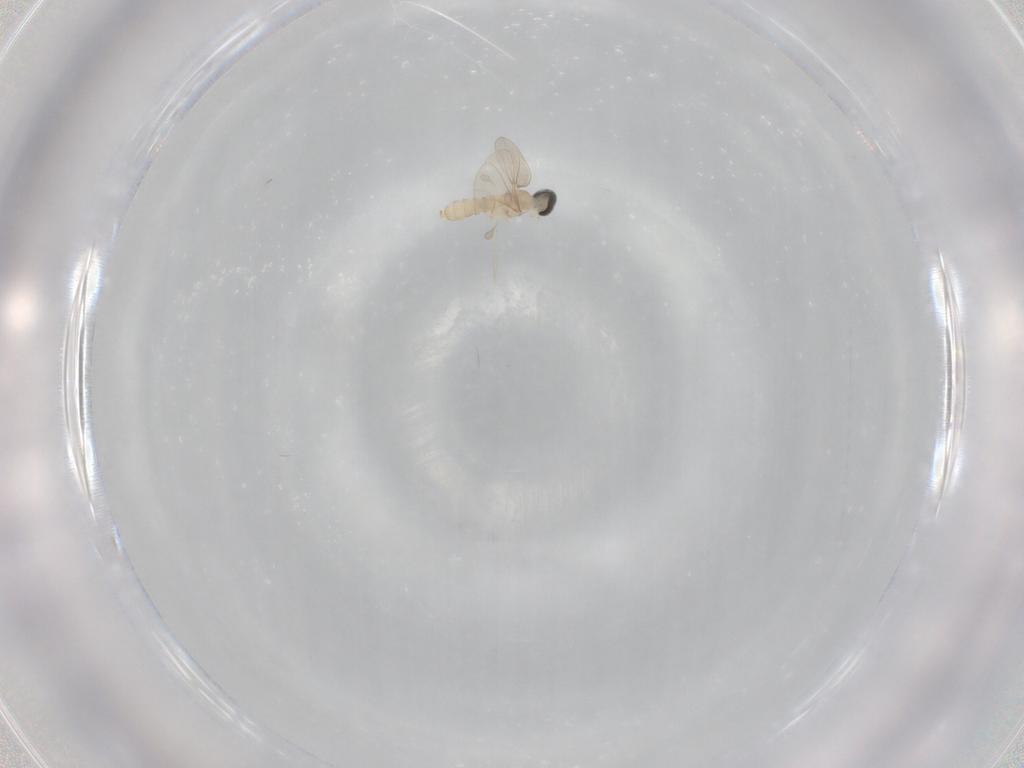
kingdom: Animalia
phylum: Arthropoda
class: Insecta
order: Diptera
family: Cecidomyiidae
